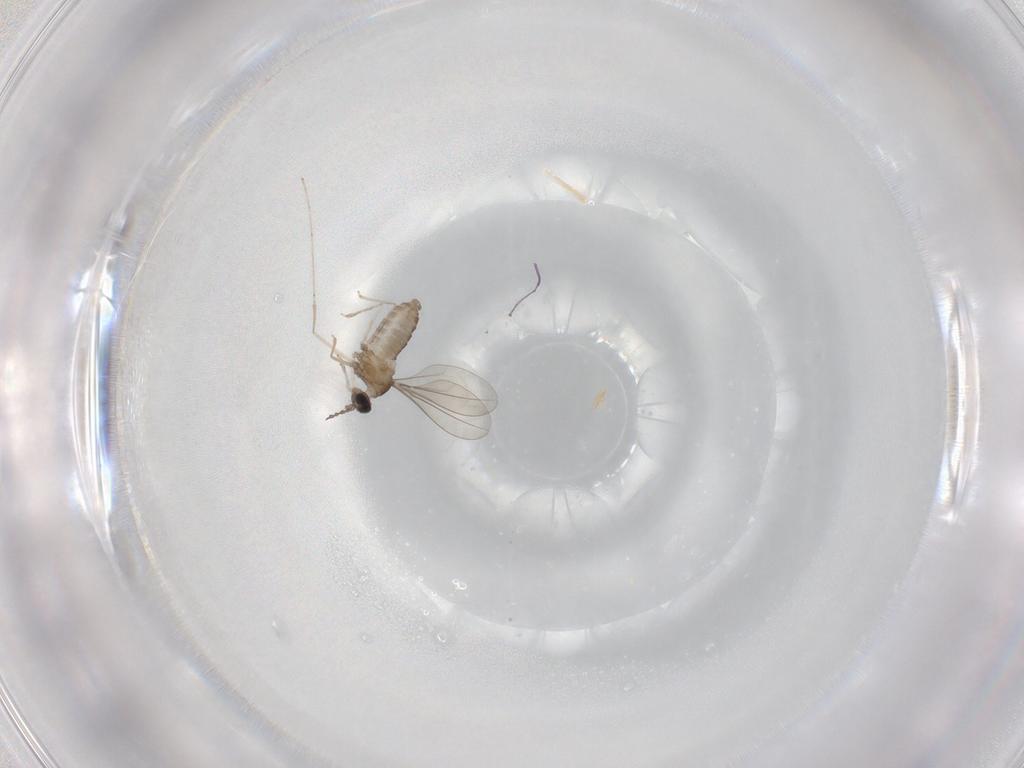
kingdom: Animalia
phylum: Arthropoda
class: Insecta
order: Diptera
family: Cecidomyiidae
